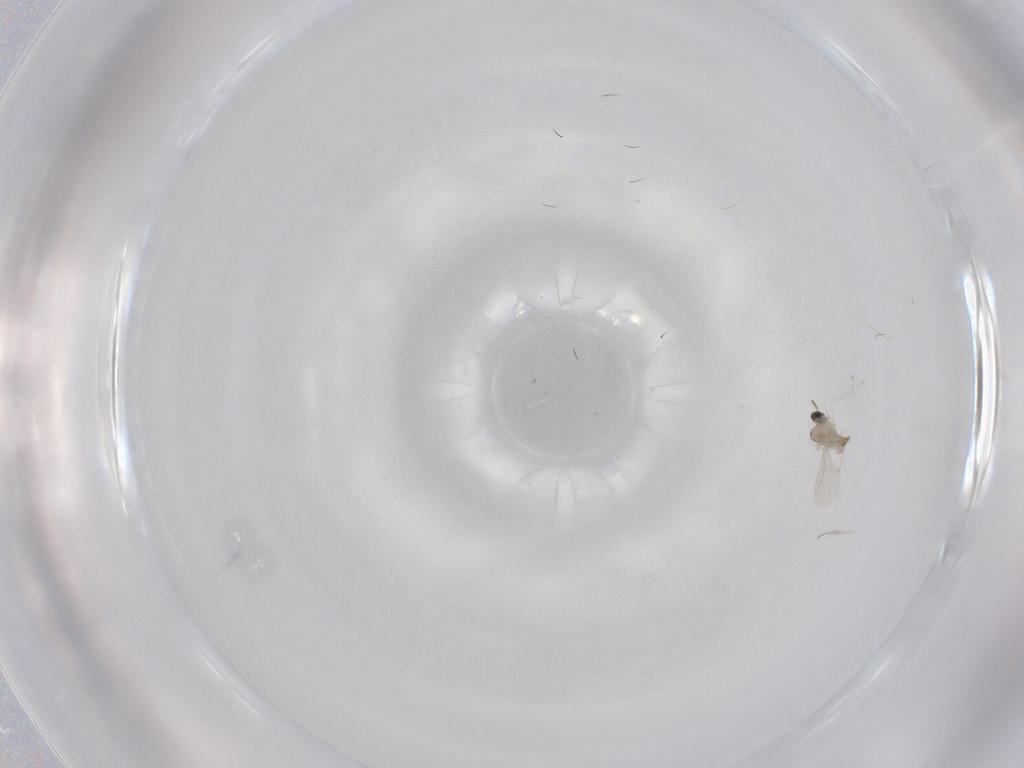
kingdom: Animalia
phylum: Arthropoda
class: Insecta
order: Diptera
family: Cecidomyiidae
